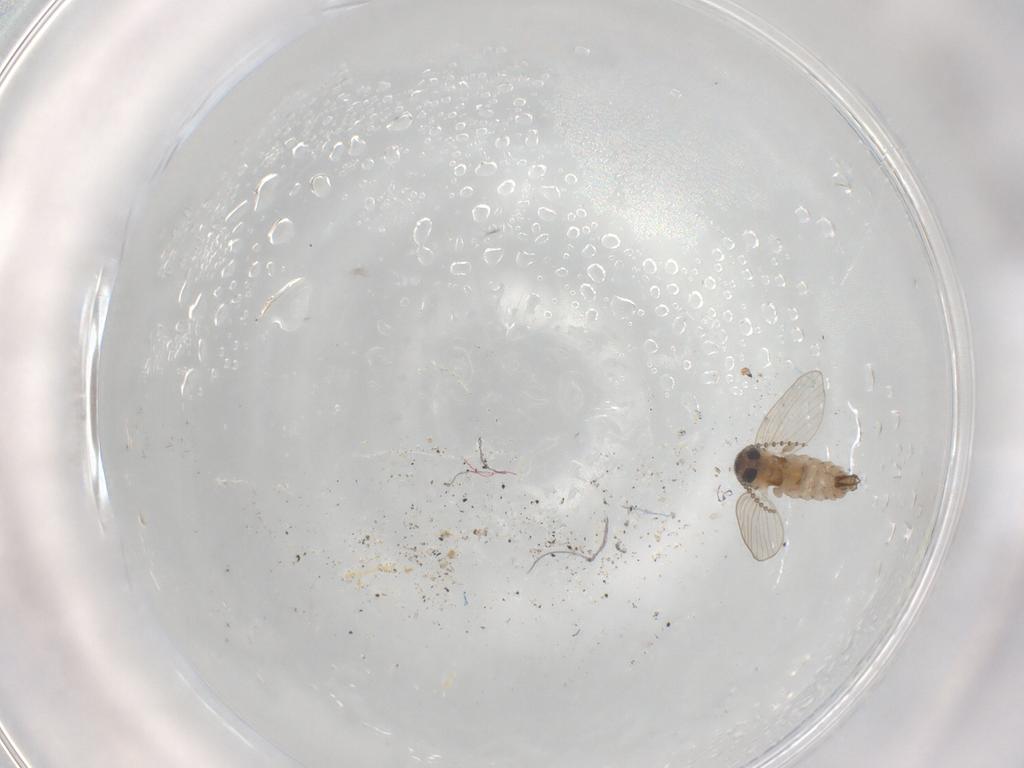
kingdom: Animalia
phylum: Arthropoda
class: Insecta
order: Diptera
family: Psychodidae
